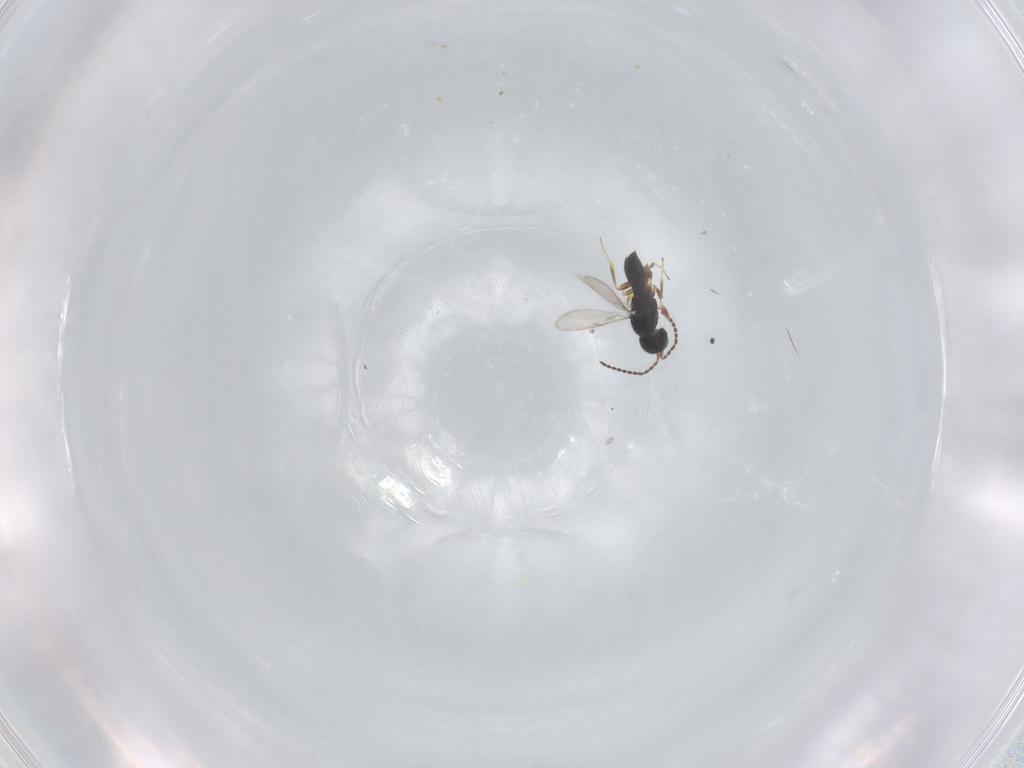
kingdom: Animalia
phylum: Arthropoda
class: Insecta
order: Hymenoptera
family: Scelionidae
